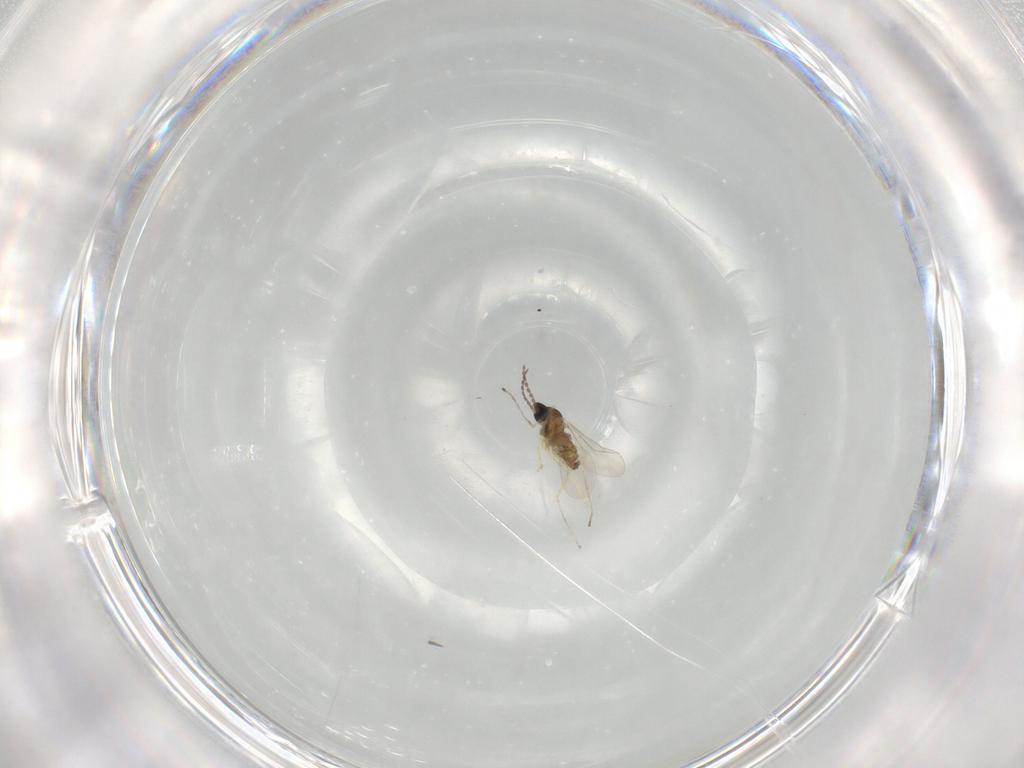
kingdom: Animalia
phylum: Arthropoda
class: Insecta
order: Diptera
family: Cecidomyiidae
